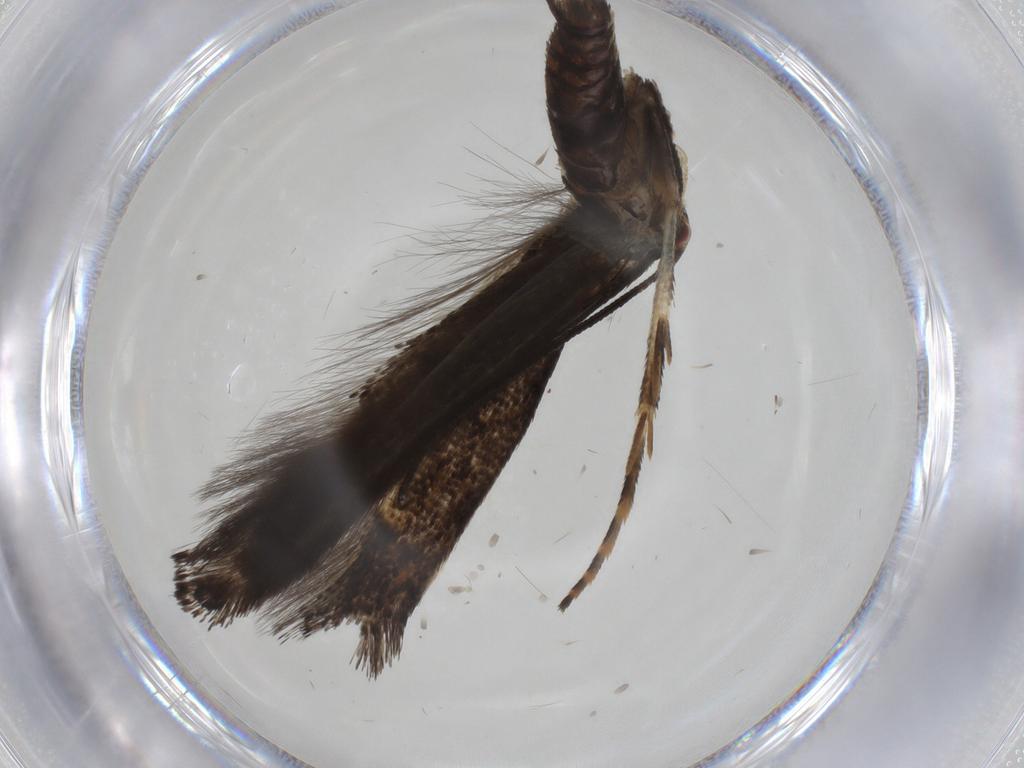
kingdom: Animalia
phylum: Arthropoda
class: Insecta
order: Lepidoptera
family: Momphidae
